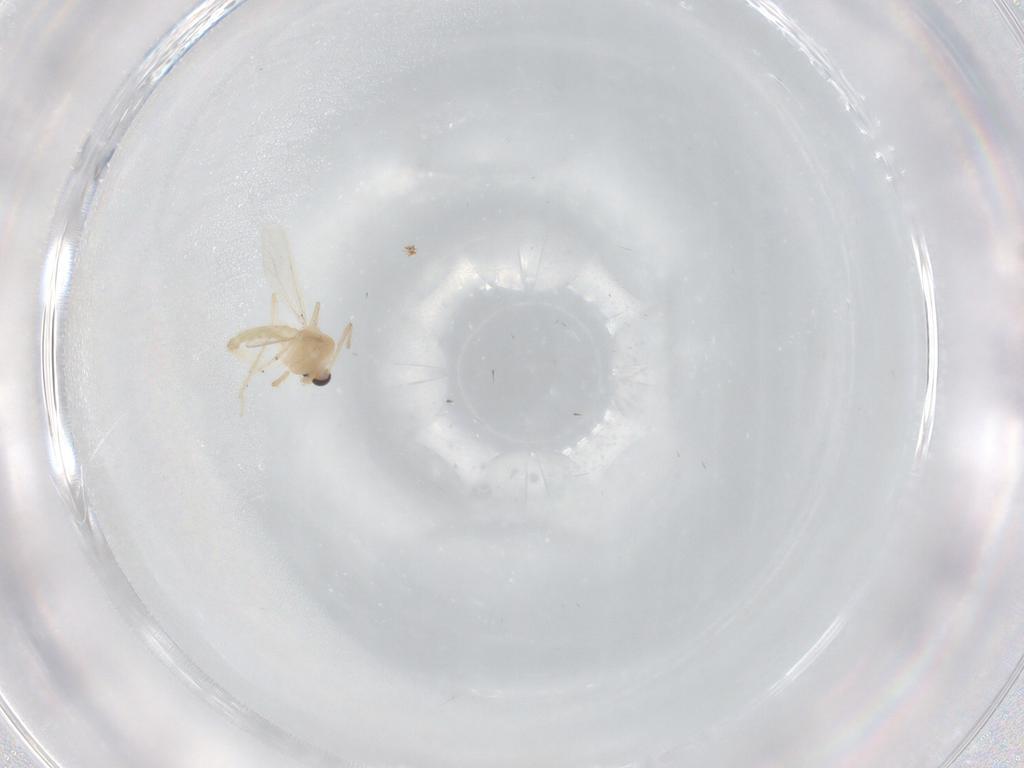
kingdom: Animalia
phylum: Arthropoda
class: Insecta
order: Diptera
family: Chironomidae
